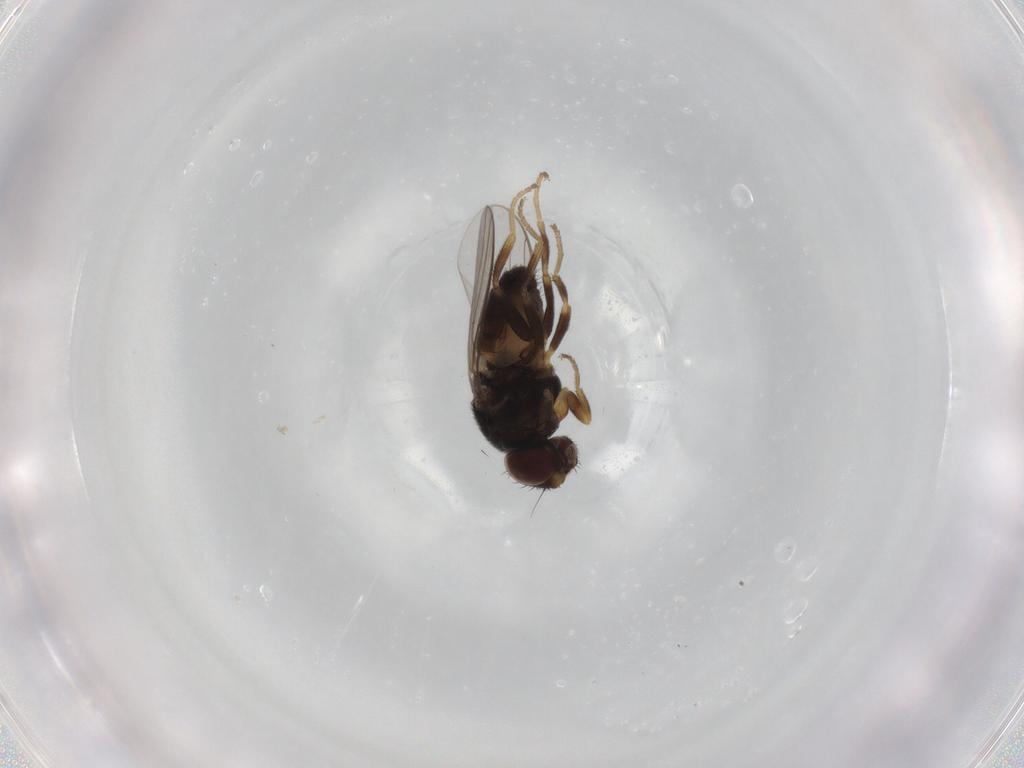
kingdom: Animalia
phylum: Arthropoda
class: Insecta
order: Diptera
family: Chloropidae
